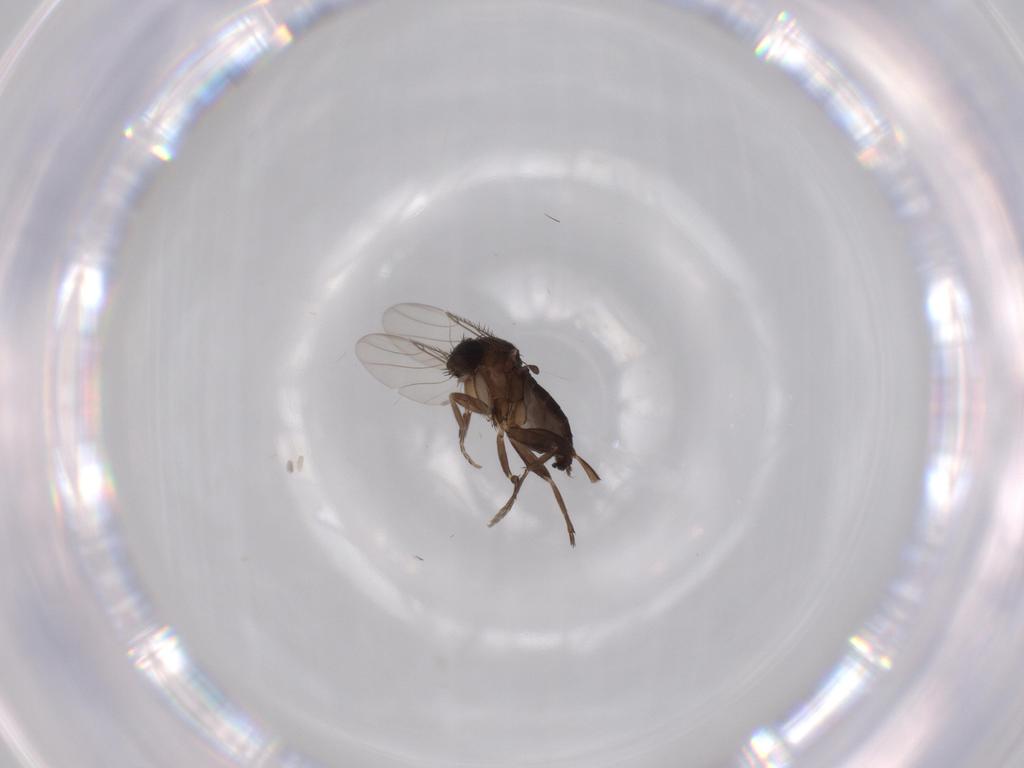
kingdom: Animalia
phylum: Arthropoda
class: Insecta
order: Diptera
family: Phoridae
